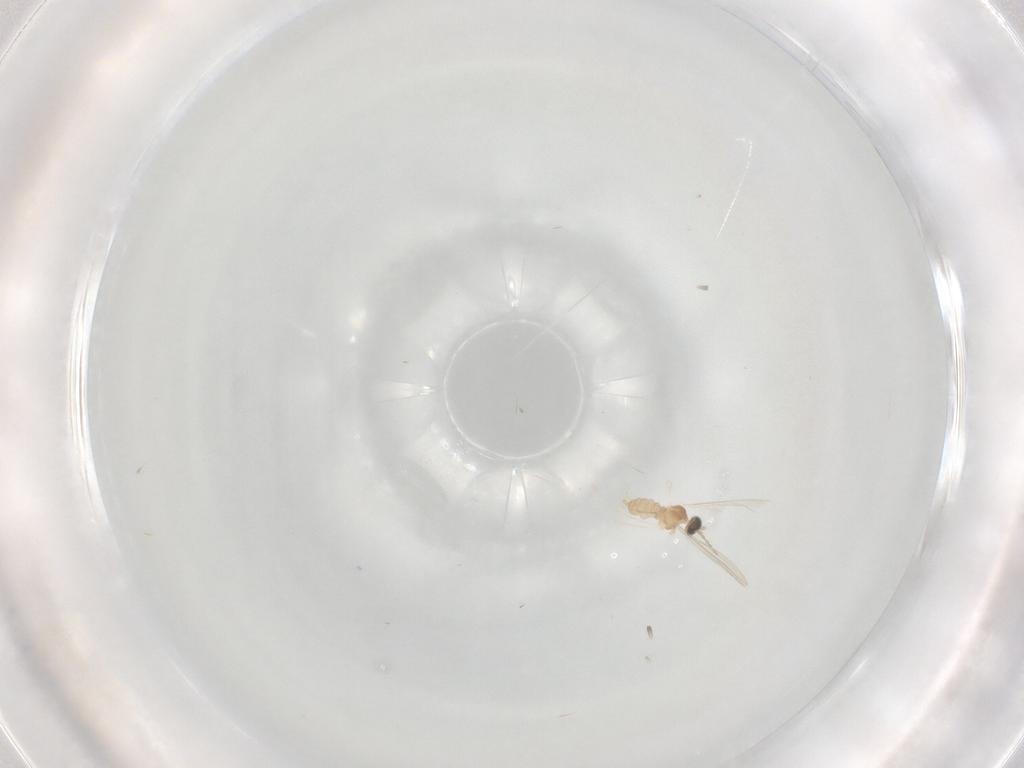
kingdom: Animalia
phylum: Arthropoda
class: Insecta
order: Diptera
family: Cecidomyiidae
